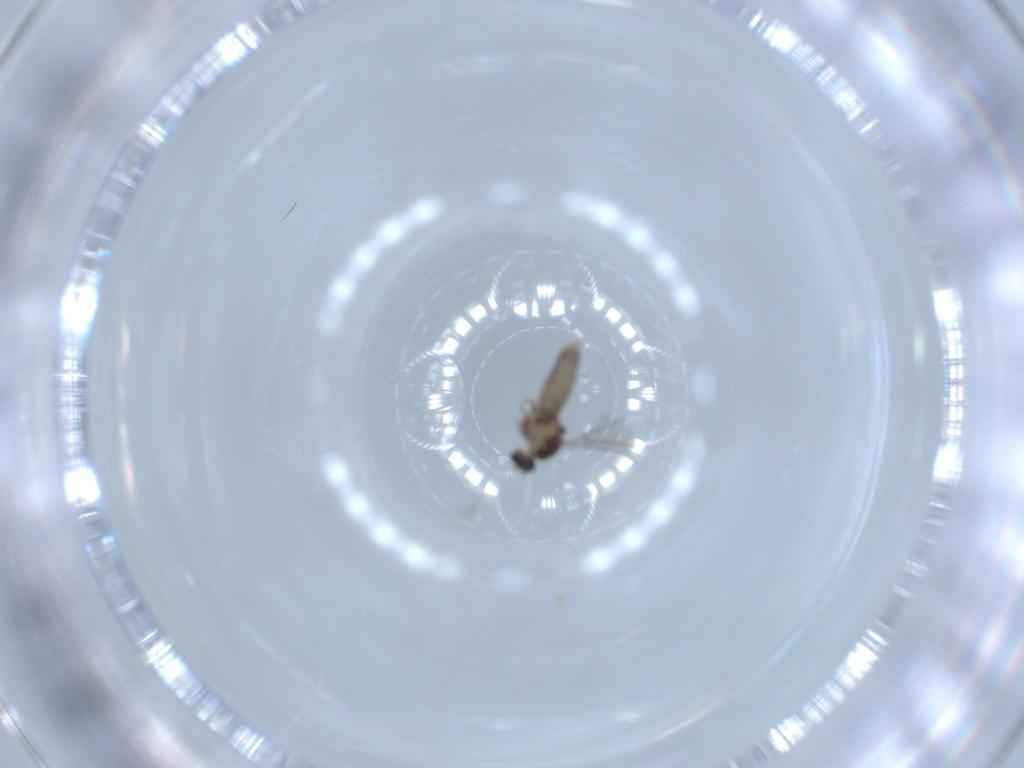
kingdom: Animalia
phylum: Arthropoda
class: Insecta
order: Diptera
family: Cecidomyiidae
